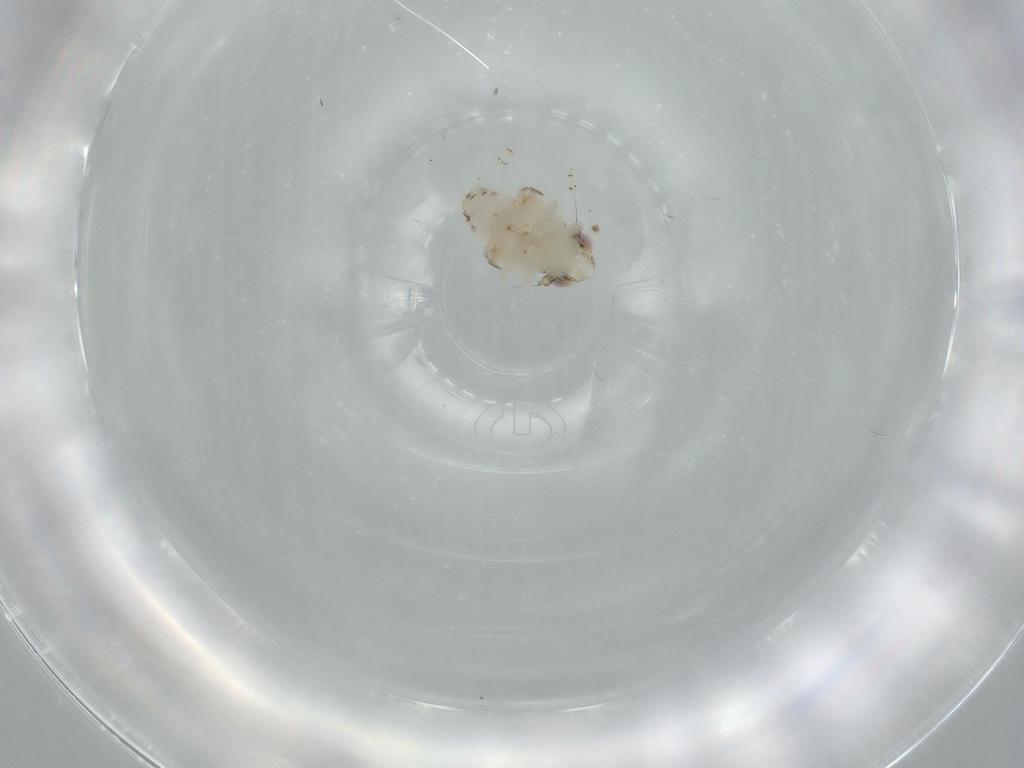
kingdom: Animalia
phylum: Arthropoda
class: Insecta
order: Hemiptera
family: Nogodinidae
